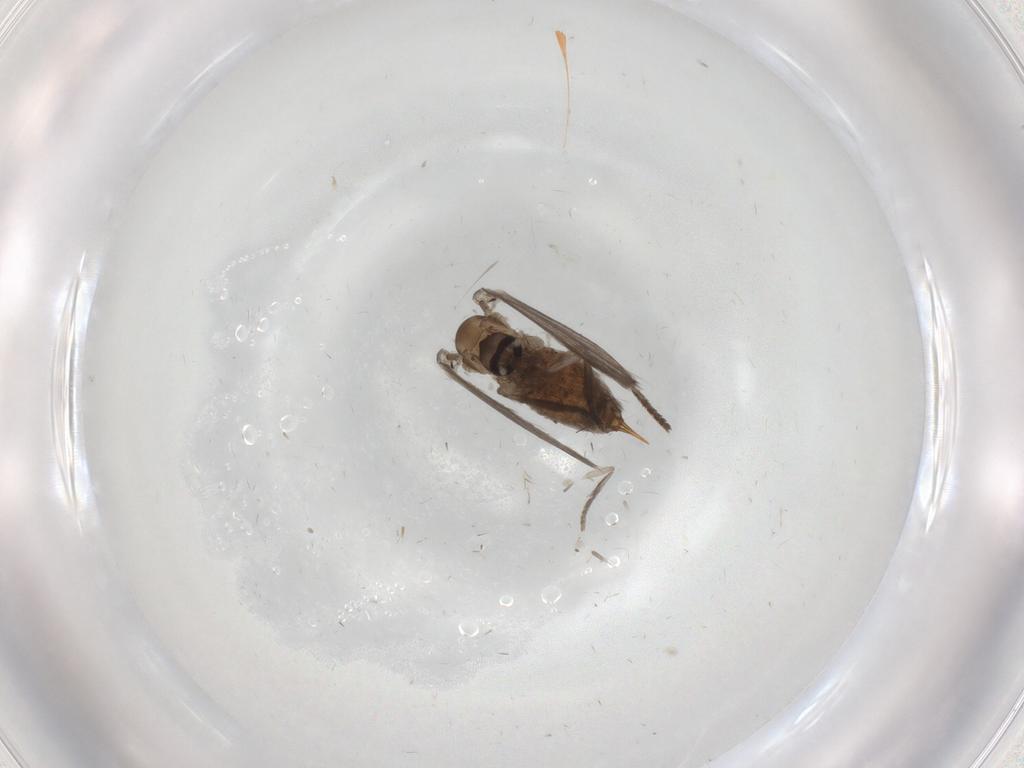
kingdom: Animalia
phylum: Arthropoda
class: Insecta
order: Diptera
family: Psychodidae
